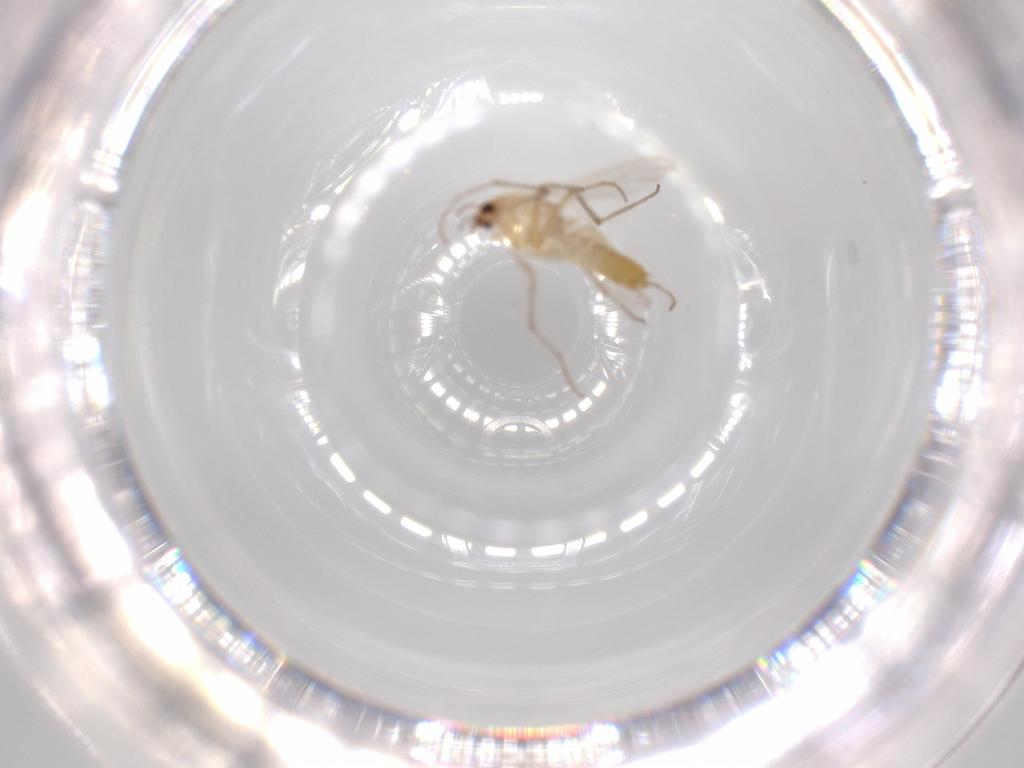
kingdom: Animalia
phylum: Arthropoda
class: Insecta
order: Diptera
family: Chironomidae
